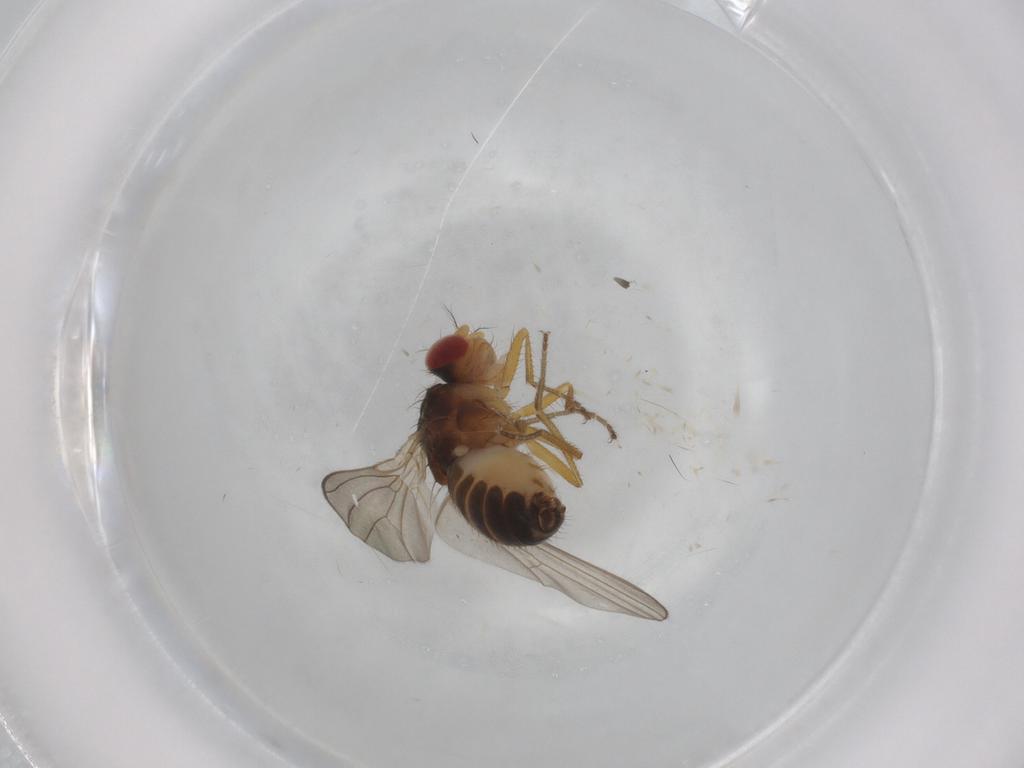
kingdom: Animalia
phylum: Arthropoda
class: Insecta
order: Diptera
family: Drosophilidae
